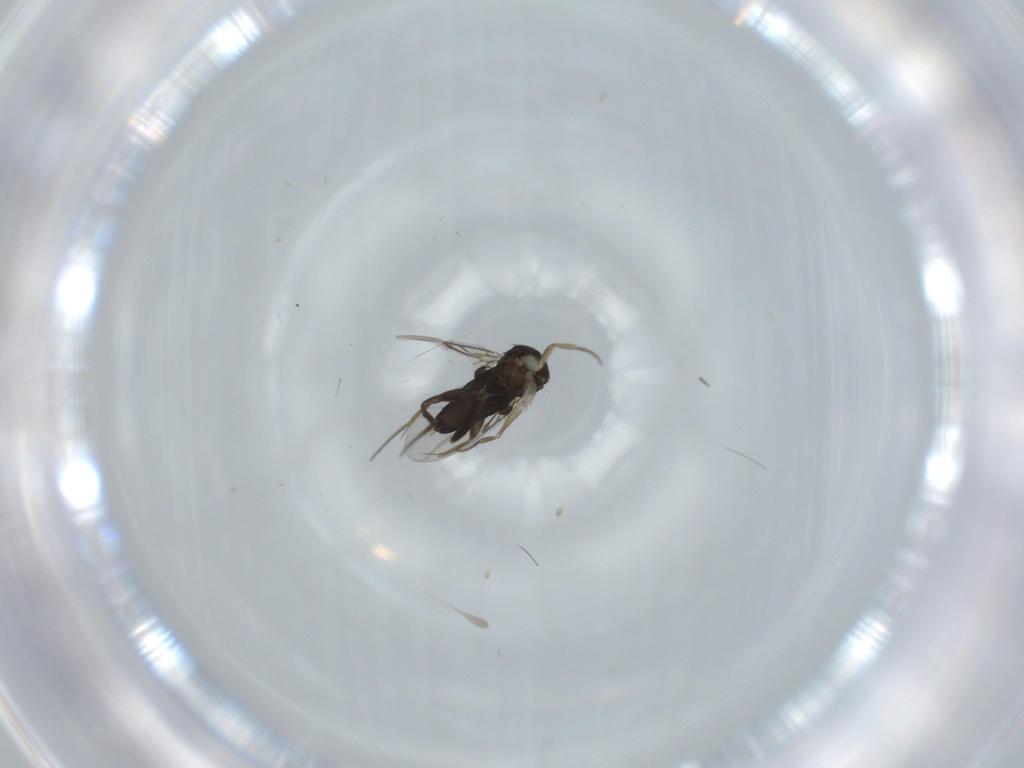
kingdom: Animalia
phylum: Arthropoda
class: Insecta
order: Diptera
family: Phoridae
